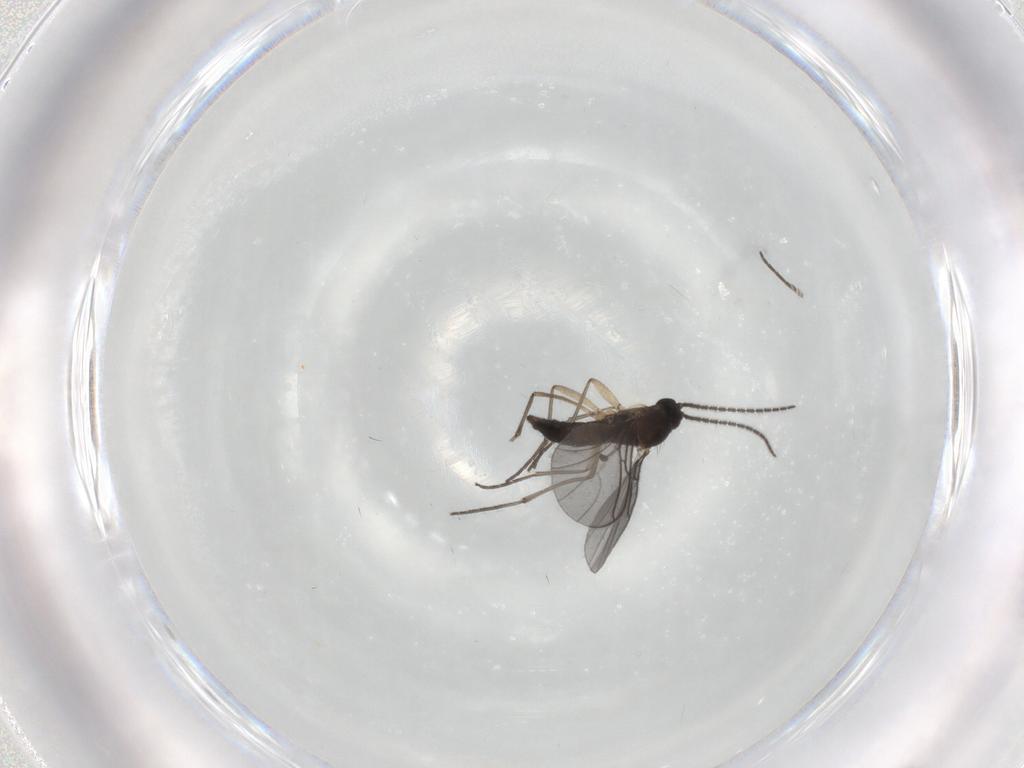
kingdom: Animalia
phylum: Arthropoda
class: Insecta
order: Diptera
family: Sciaridae
